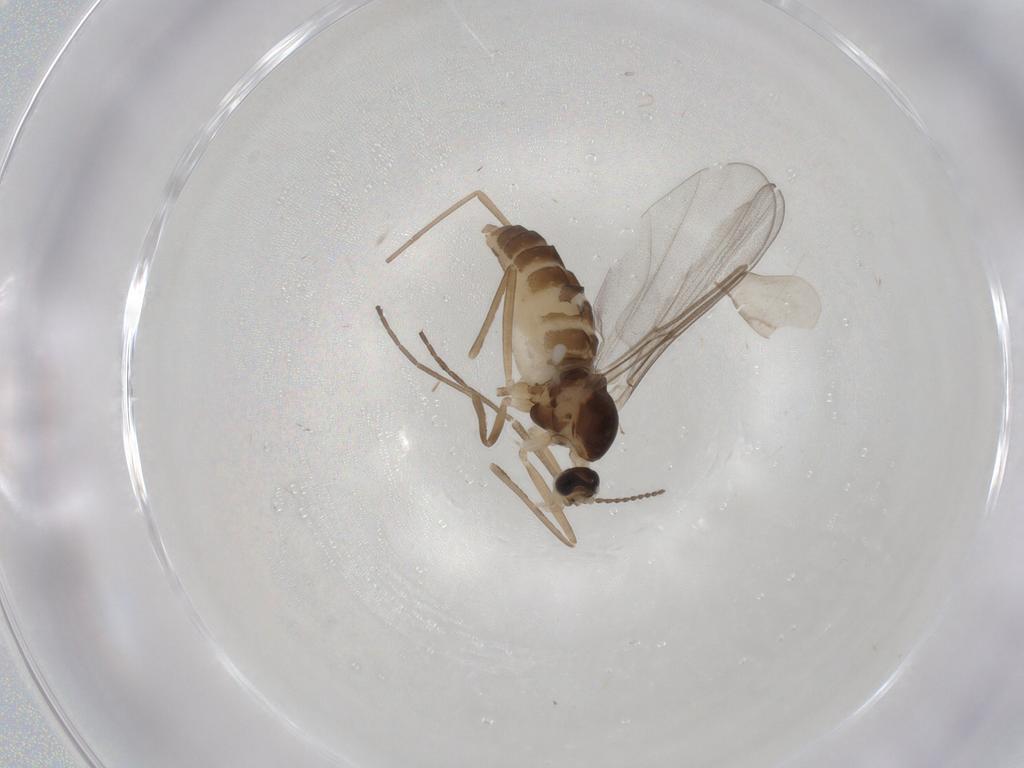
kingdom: Animalia
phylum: Arthropoda
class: Insecta
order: Diptera
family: Cecidomyiidae
